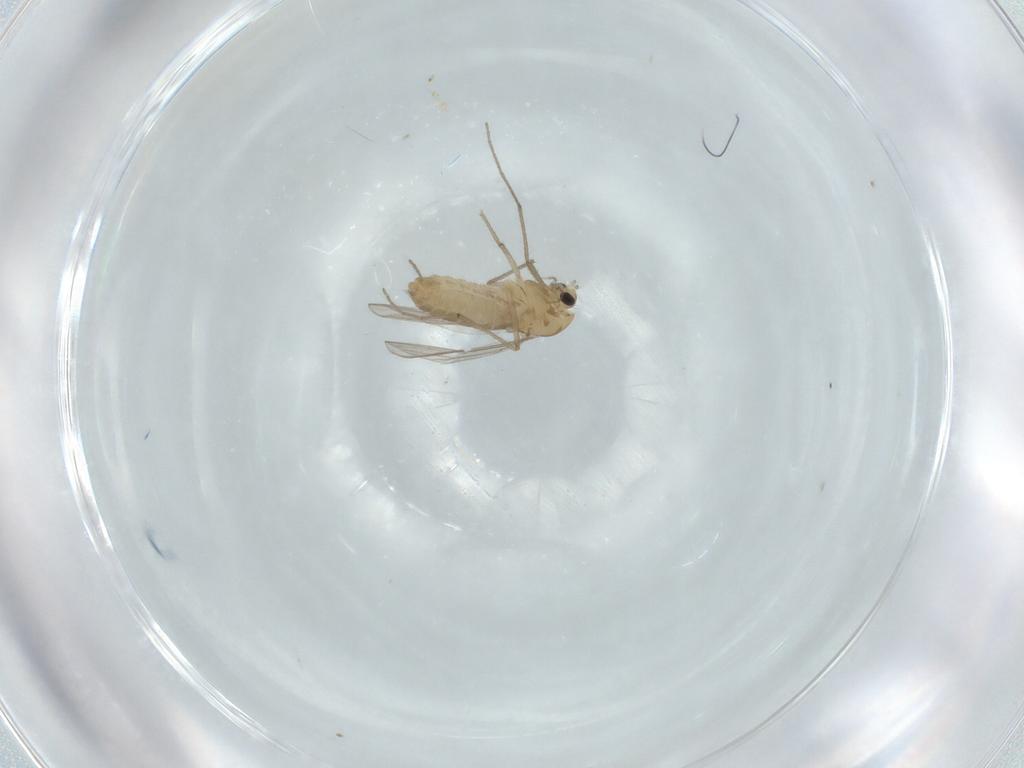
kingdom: Animalia
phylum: Arthropoda
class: Insecta
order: Diptera
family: Chironomidae
